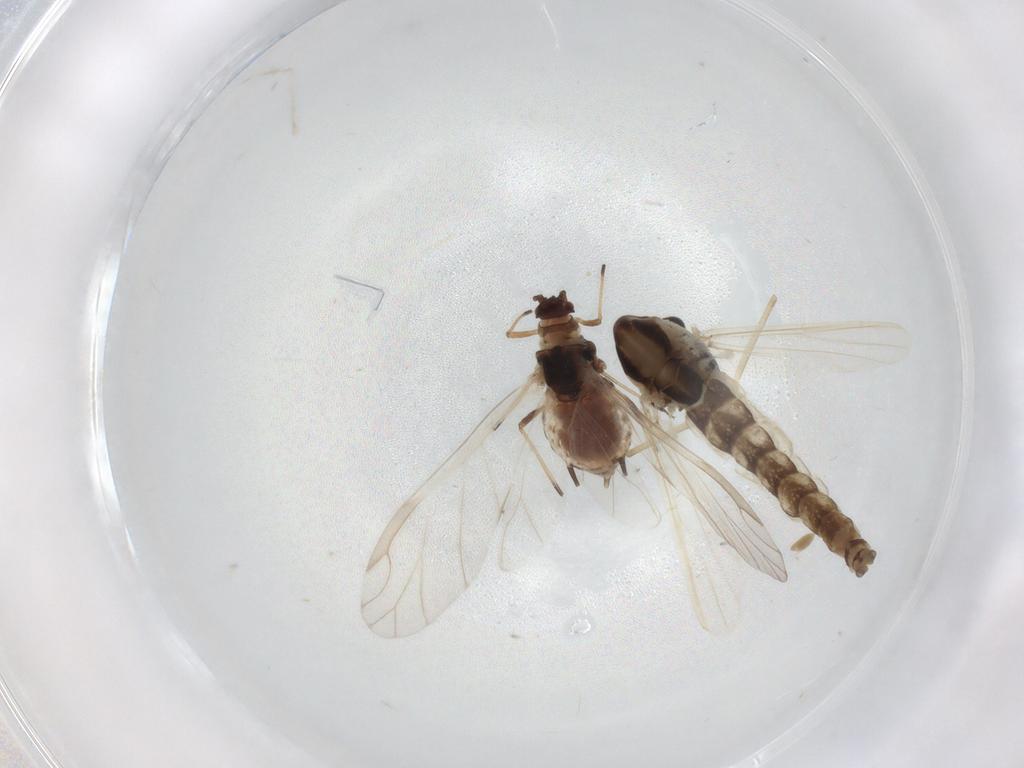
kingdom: Animalia
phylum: Arthropoda
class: Insecta
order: Hemiptera
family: Aphididae
